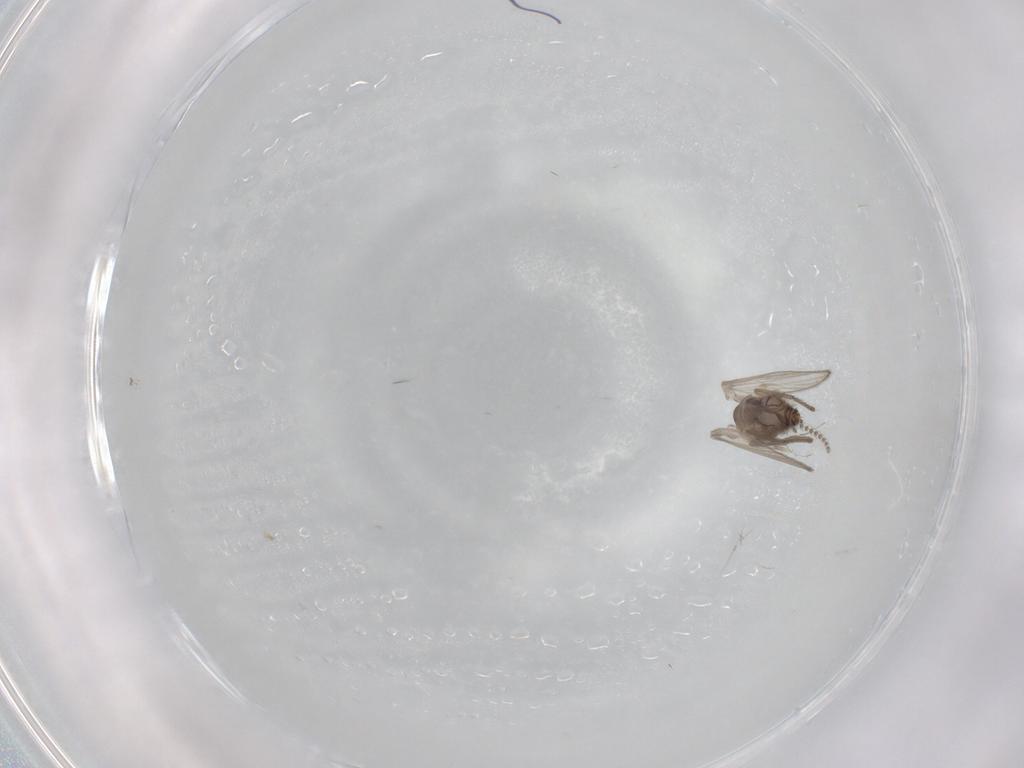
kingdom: Animalia
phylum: Arthropoda
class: Insecta
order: Diptera
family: Psychodidae
